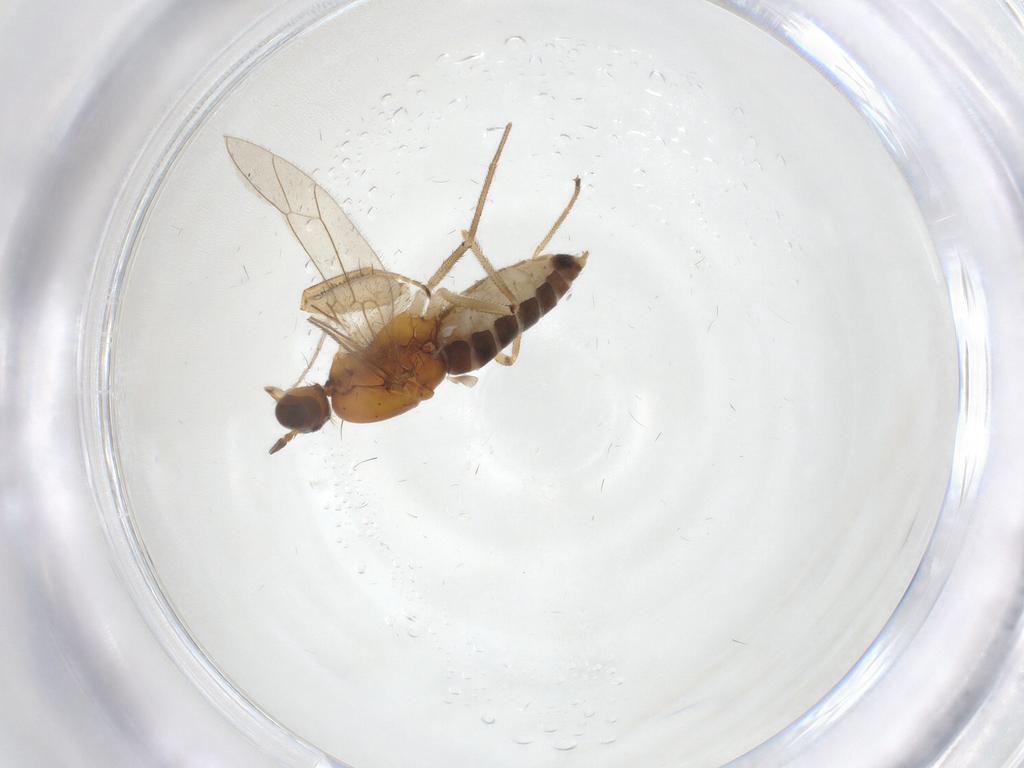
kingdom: Animalia
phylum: Arthropoda
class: Insecta
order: Diptera
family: Empididae
